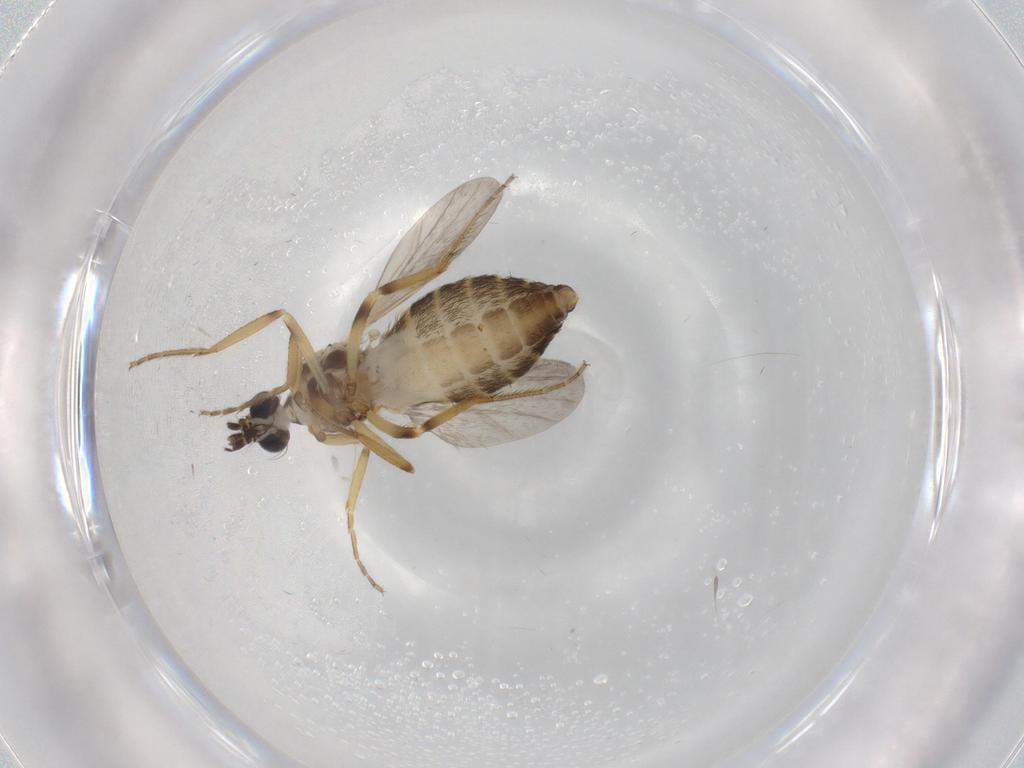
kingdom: Animalia
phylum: Arthropoda
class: Insecta
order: Diptera
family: Ceratopogonidae
